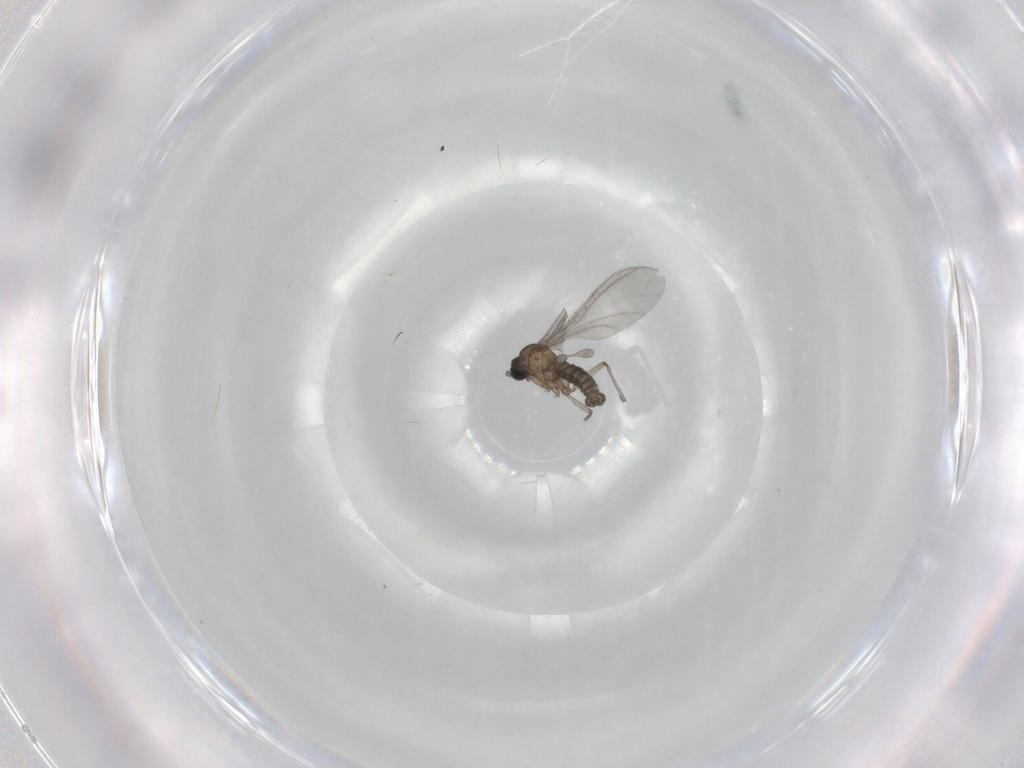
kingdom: Animalia
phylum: Arthropoda
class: Insecta
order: Diptera
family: Sciaridae
